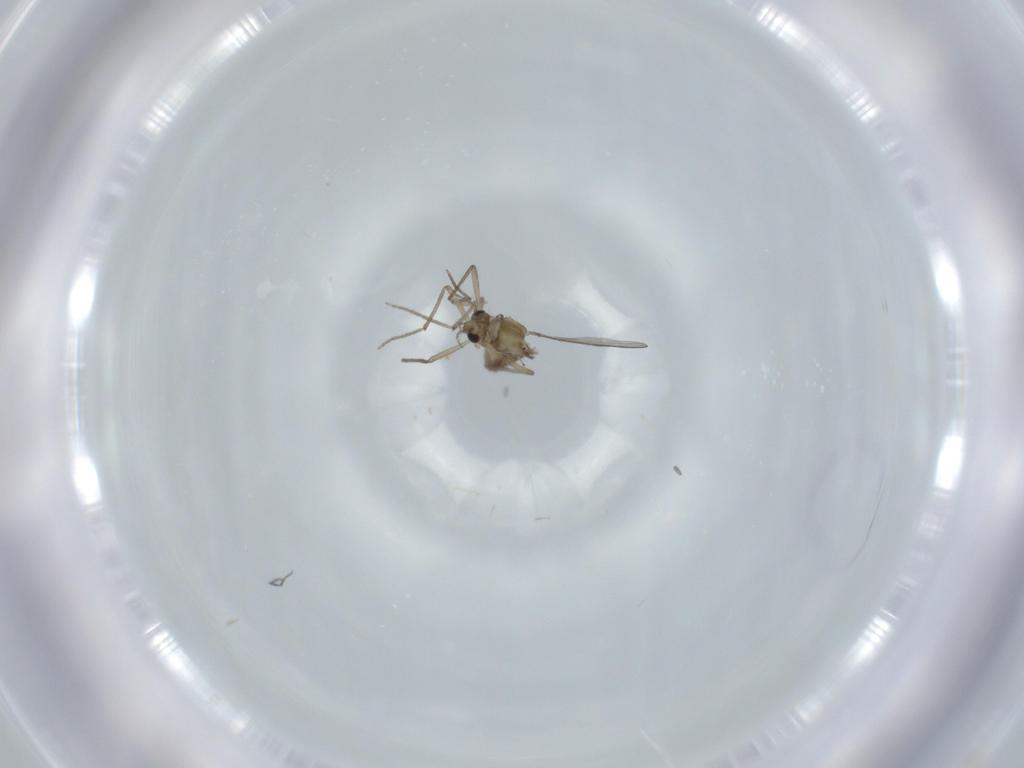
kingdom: Animalia
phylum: Arthropoda
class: Insecta
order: Diptera
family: Chironomidae
